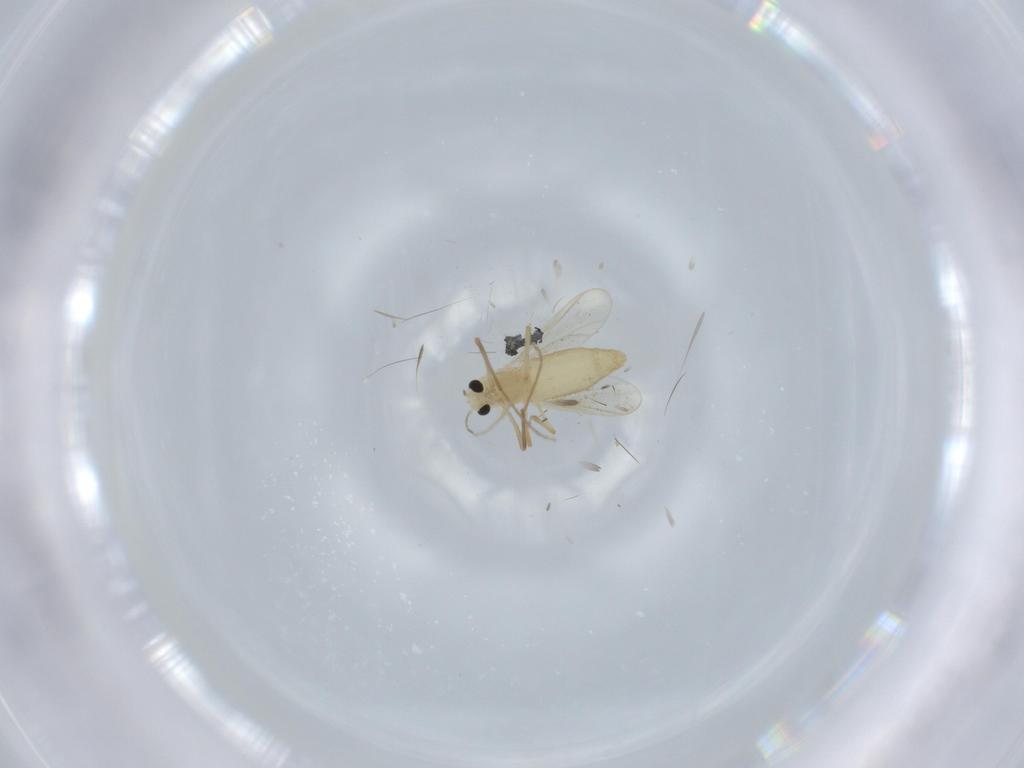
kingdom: Animalia
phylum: Arthropoda
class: Insecta
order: Diptera
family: Chironomidae
